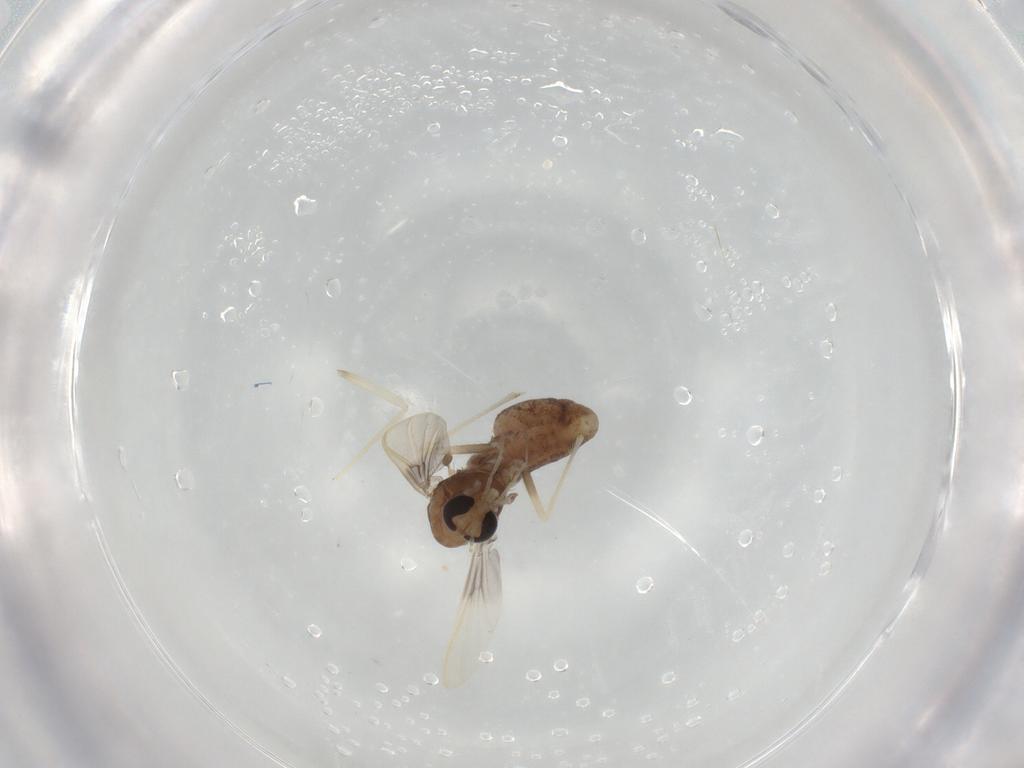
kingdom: Animalia
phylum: Arthropoda
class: Insecta
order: Diptera
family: Chironomidae
